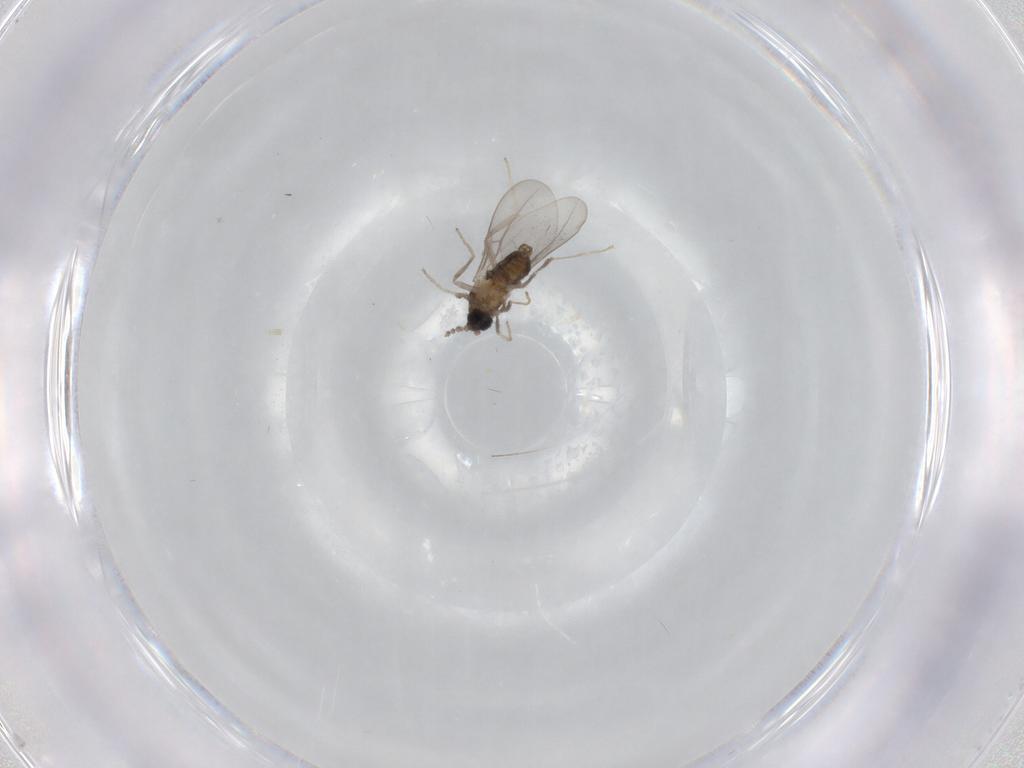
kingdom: Animalia
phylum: Arthropoda
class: Insecta
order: Diptera
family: Cecidomyiidae
